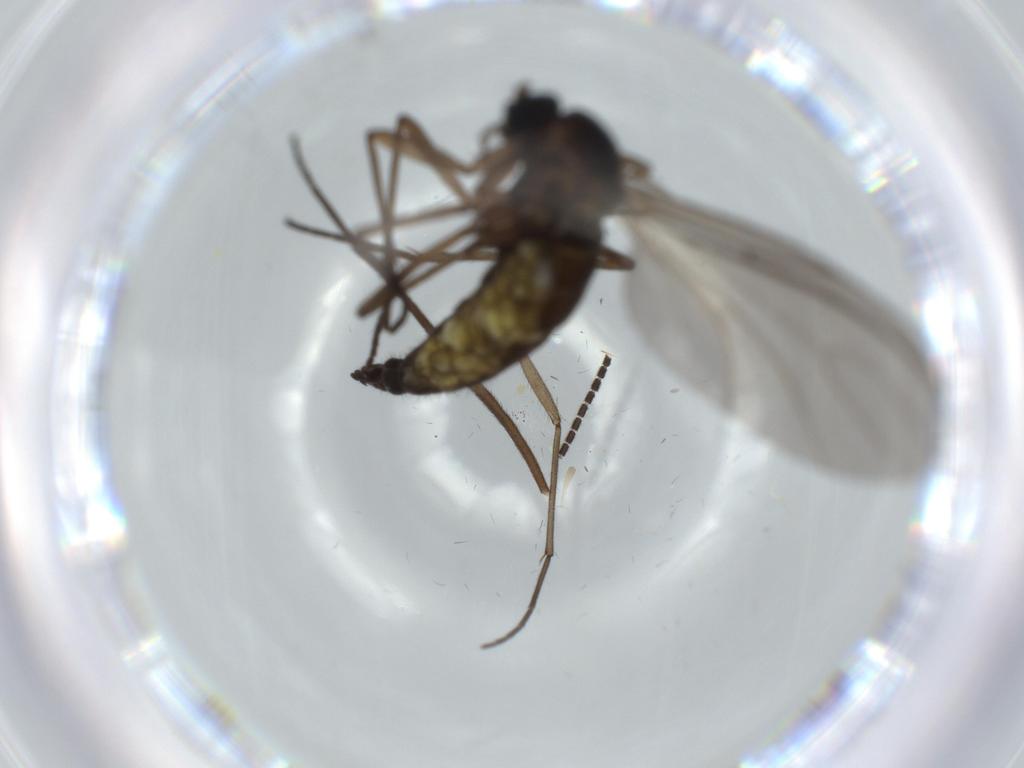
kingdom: Animalia
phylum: Arthropoda
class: Insecta
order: Diptera
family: Sciaridae
